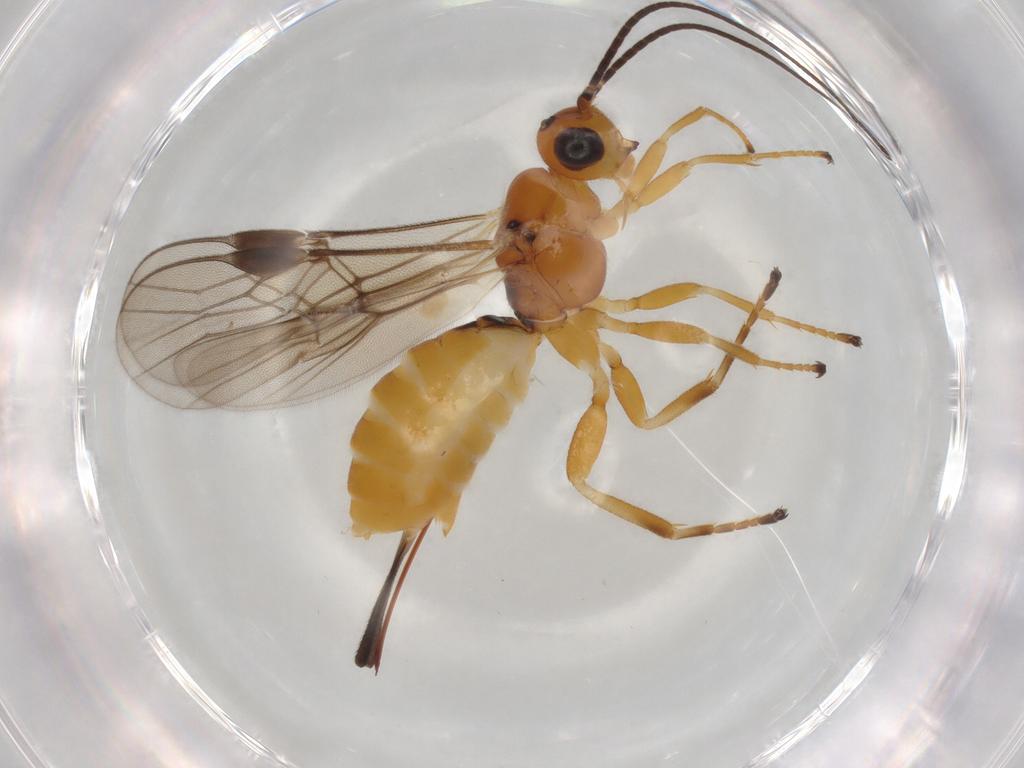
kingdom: Animalia
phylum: Arthropoda
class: Insecta
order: Hymenoptera
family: Braconidae
